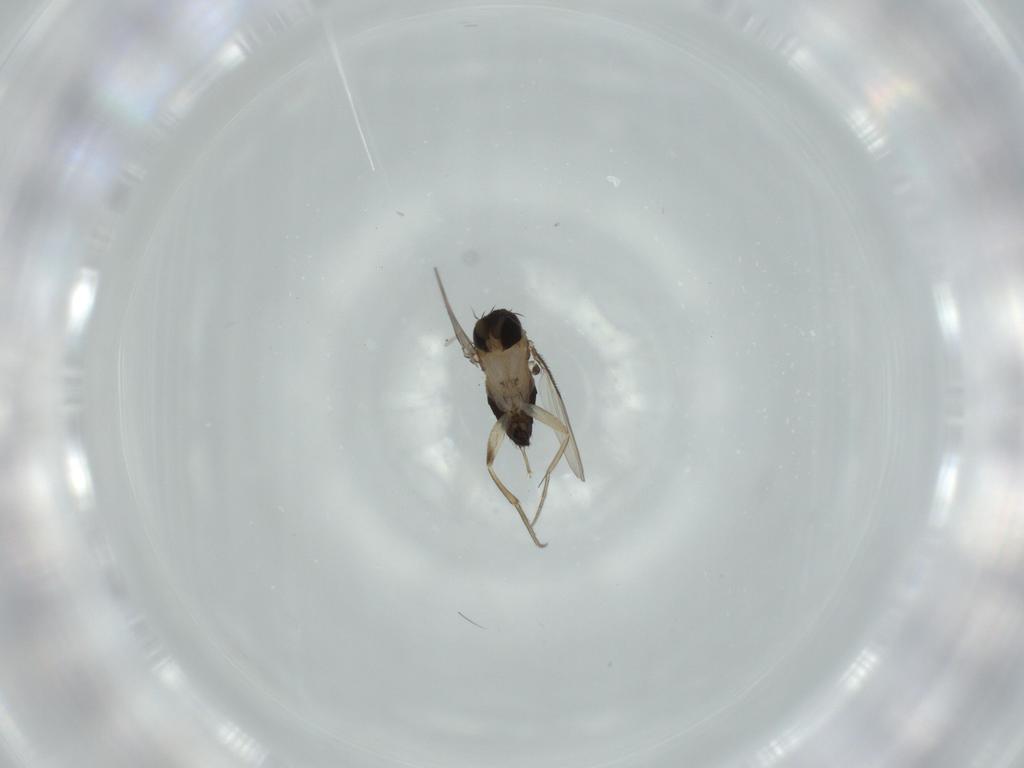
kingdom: Animalia
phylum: Arthropoda
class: Insecta
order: Diptera
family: Phoridae
